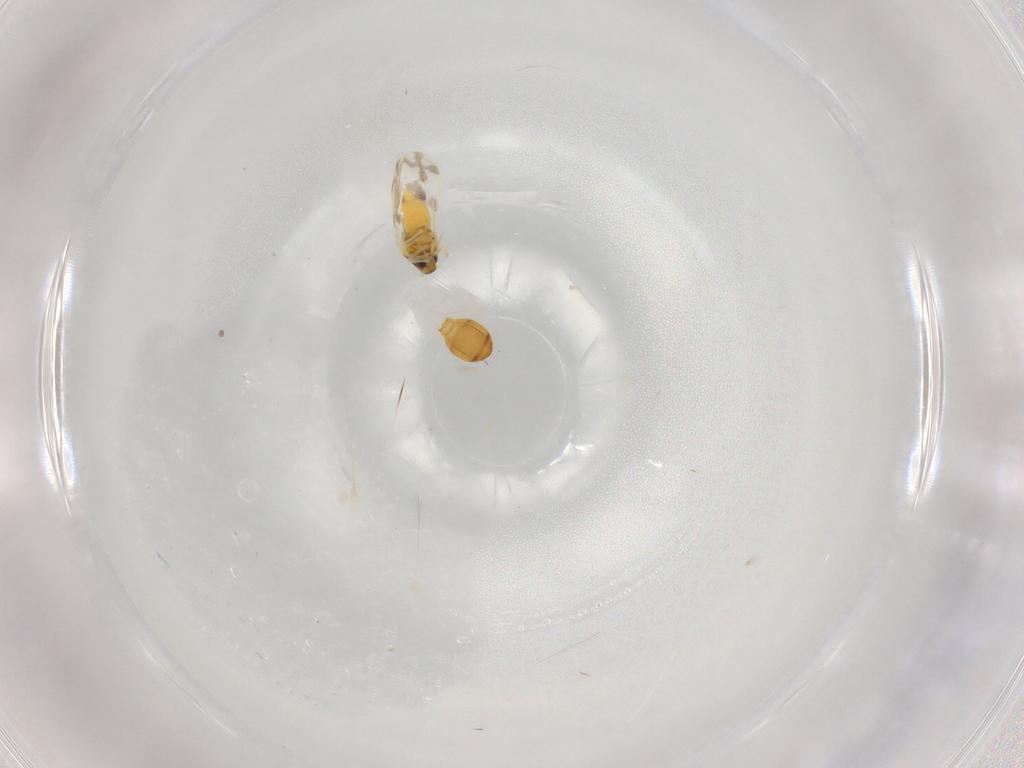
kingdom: Animalia
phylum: Arthropoda
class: Insecta
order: Hemiptera
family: Aleyrodidae
